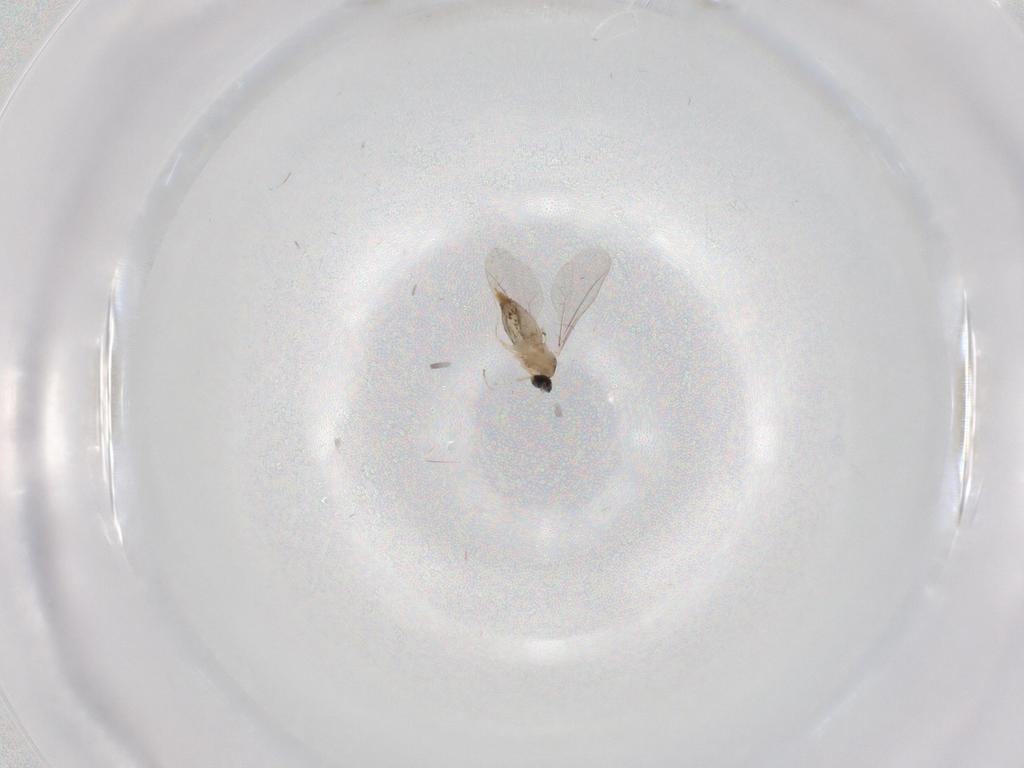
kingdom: Animalia
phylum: Arthropoda
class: Insecta
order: Diptera
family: Cecidomyiidae
